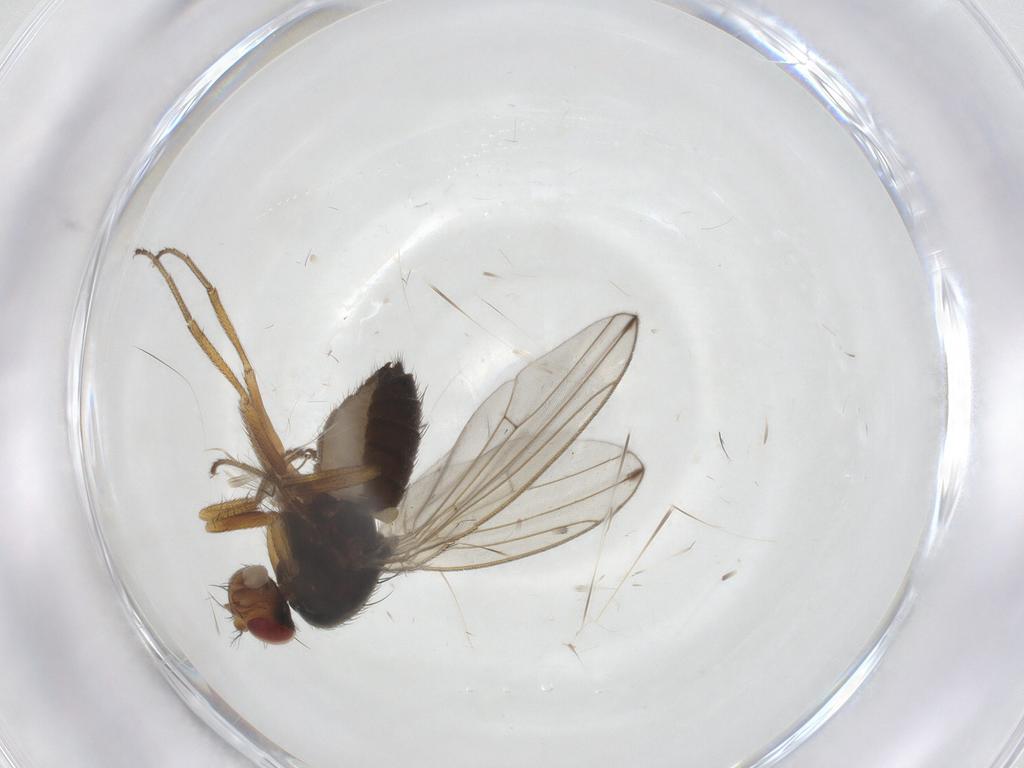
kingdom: Animalia
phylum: Arthropoda
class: Insecta
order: Diptera
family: Drosophilidae
